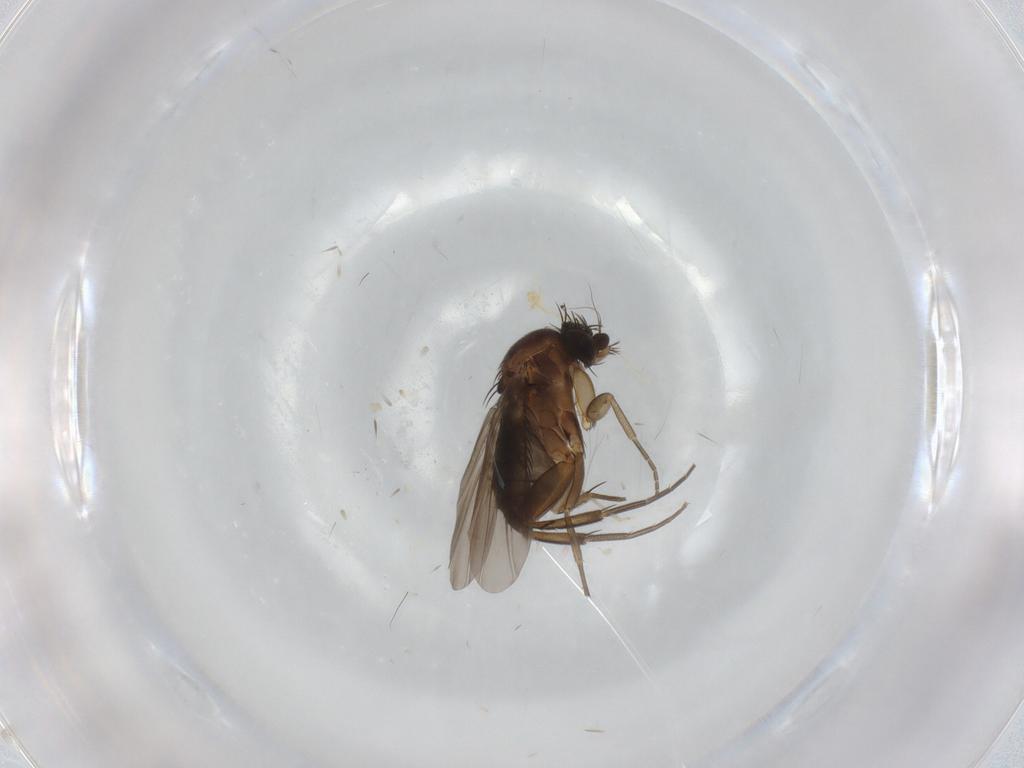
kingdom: Animalia
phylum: Arthropoda
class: Insecta
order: Diptera
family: Phoridae
